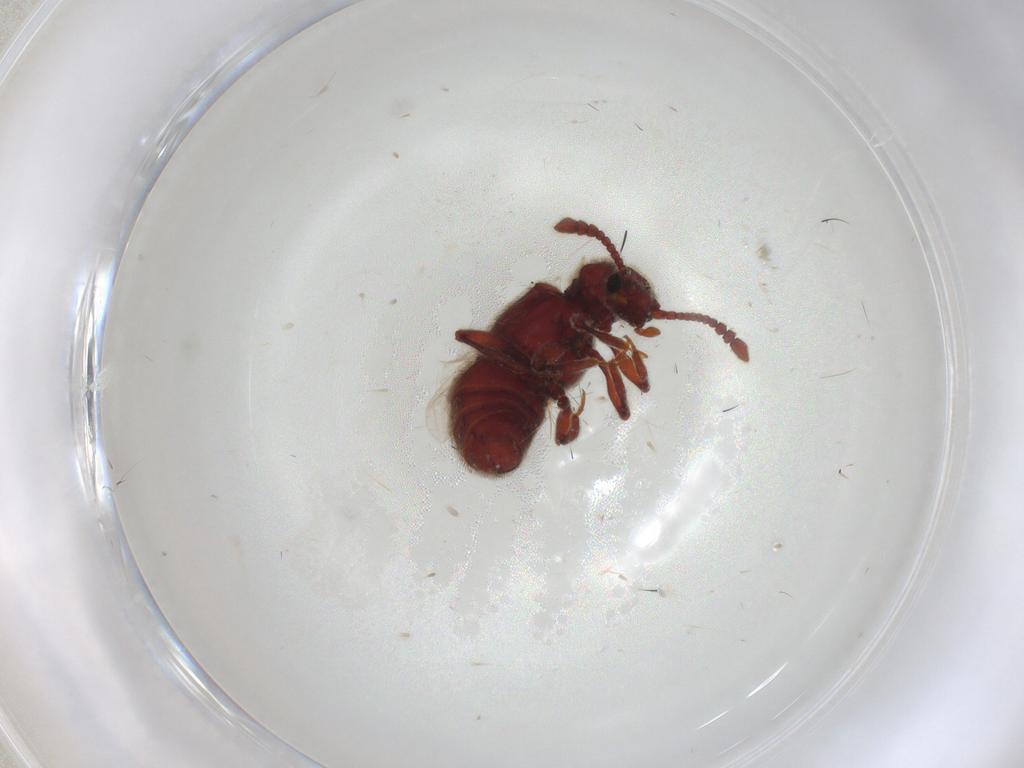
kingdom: Animalia
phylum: Arthropoda
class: Insecta
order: Coleoptera
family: Staphylinidae
